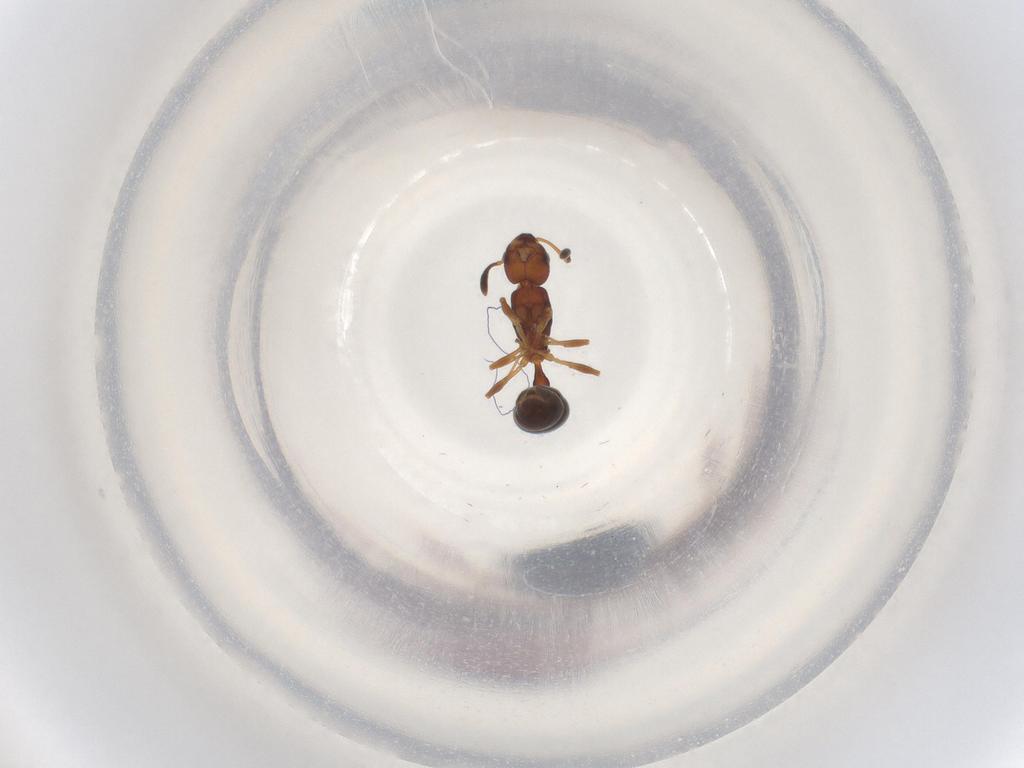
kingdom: Animalia
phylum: Arthropoda
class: Insecta
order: Hymenoptera
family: Formicidae
